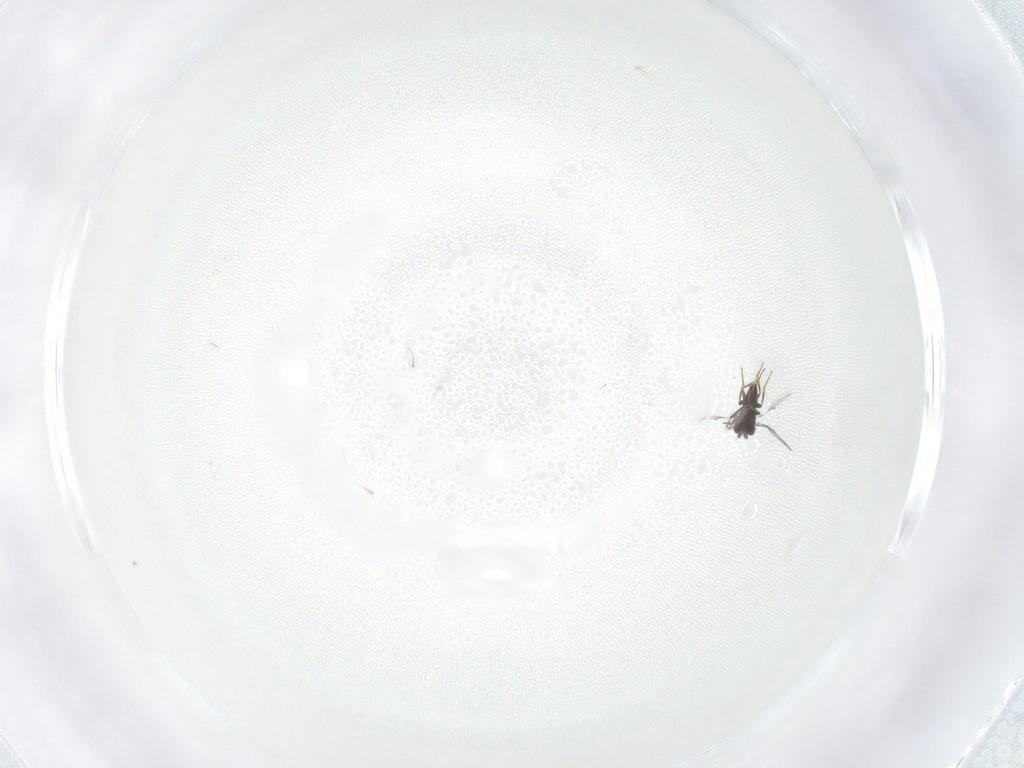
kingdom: Animalia
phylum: Arthropoda
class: Insecta
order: Hymenoptera
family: Trichogrammatidae
